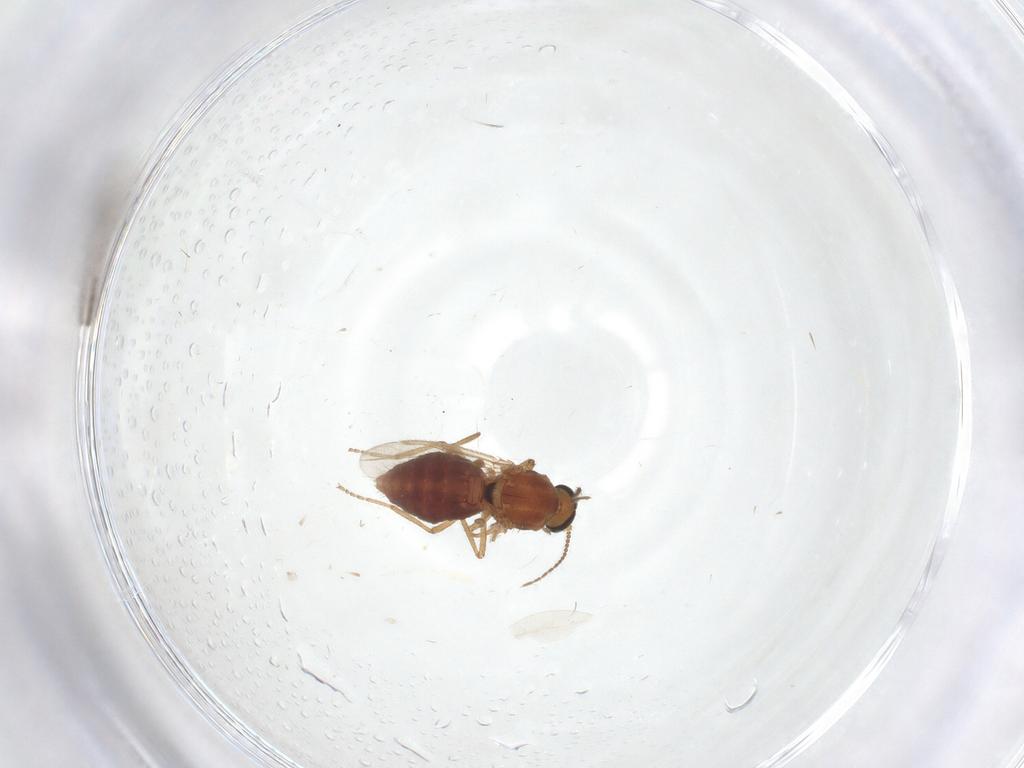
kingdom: Animalia
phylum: Arthropoda
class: Insecta
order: Diptera
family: Ceratopogonidae
